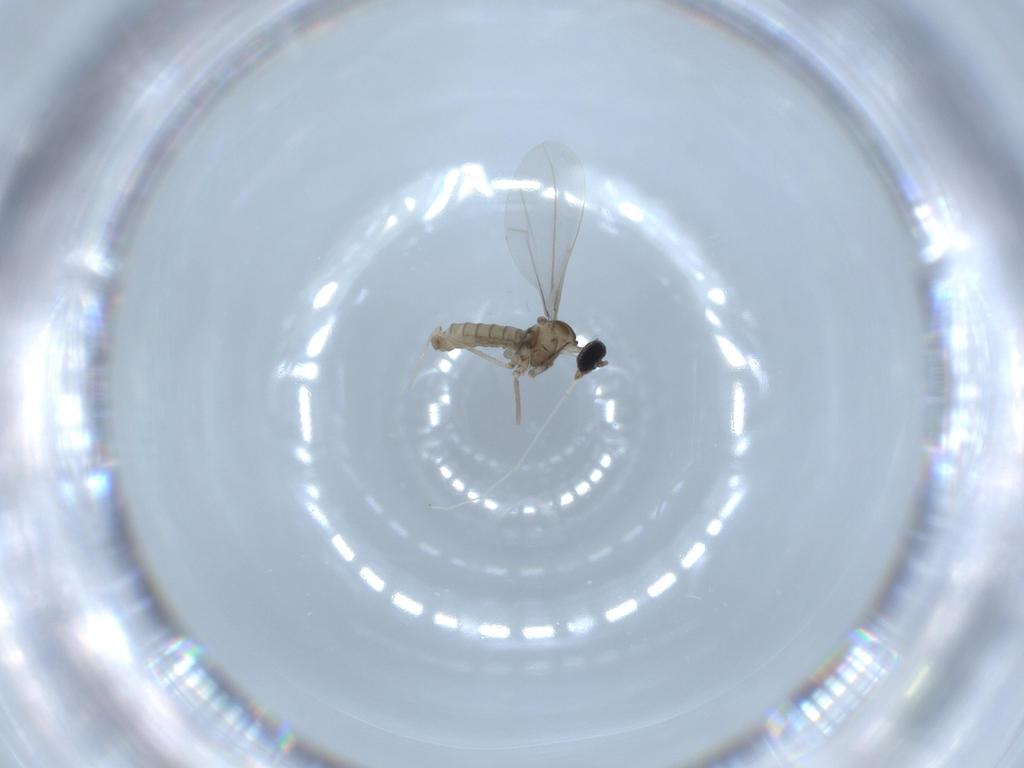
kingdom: Animalia
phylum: Arthropoda
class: Insecta
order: Diptera
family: Cecidomyiidae
